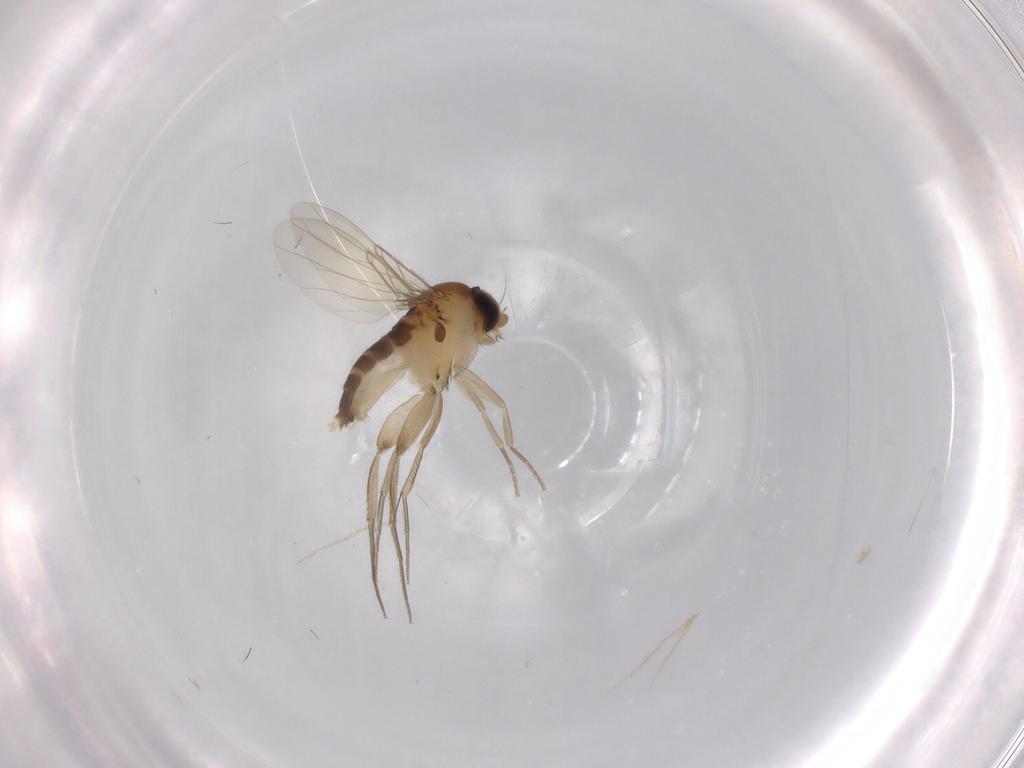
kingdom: Animalia
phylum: Arthropoda
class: Insecta
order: Diptera
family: Phoridae
